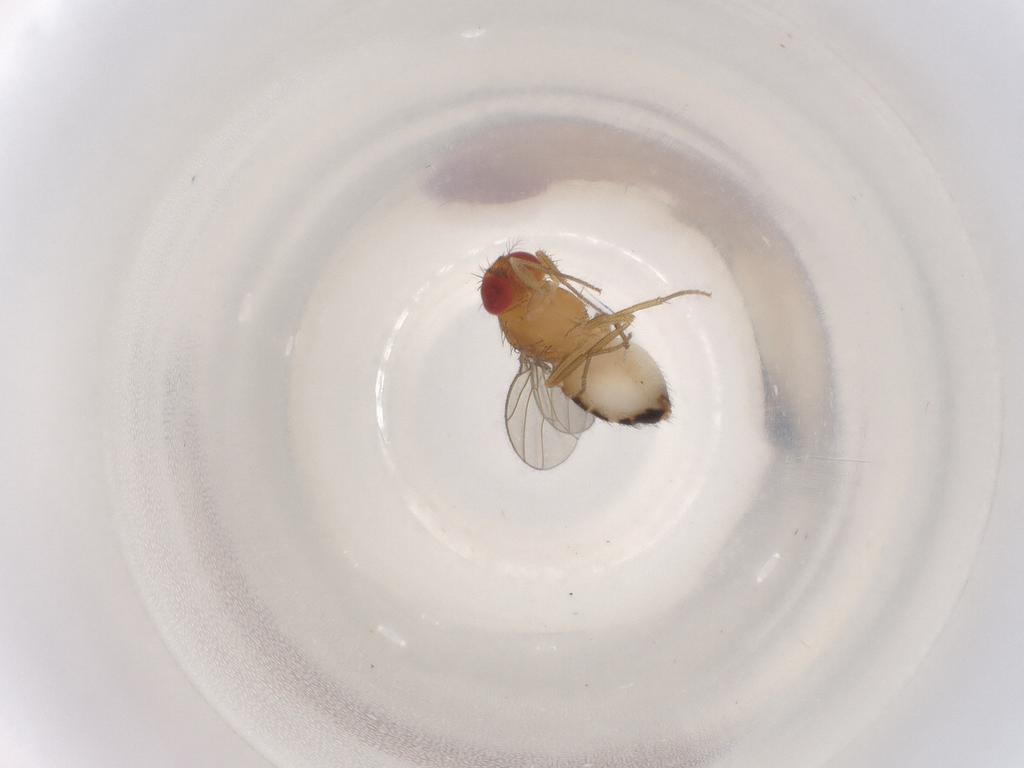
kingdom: Animalia
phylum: Arthropoda
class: Insecta
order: Diptera
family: Drosophilidae
